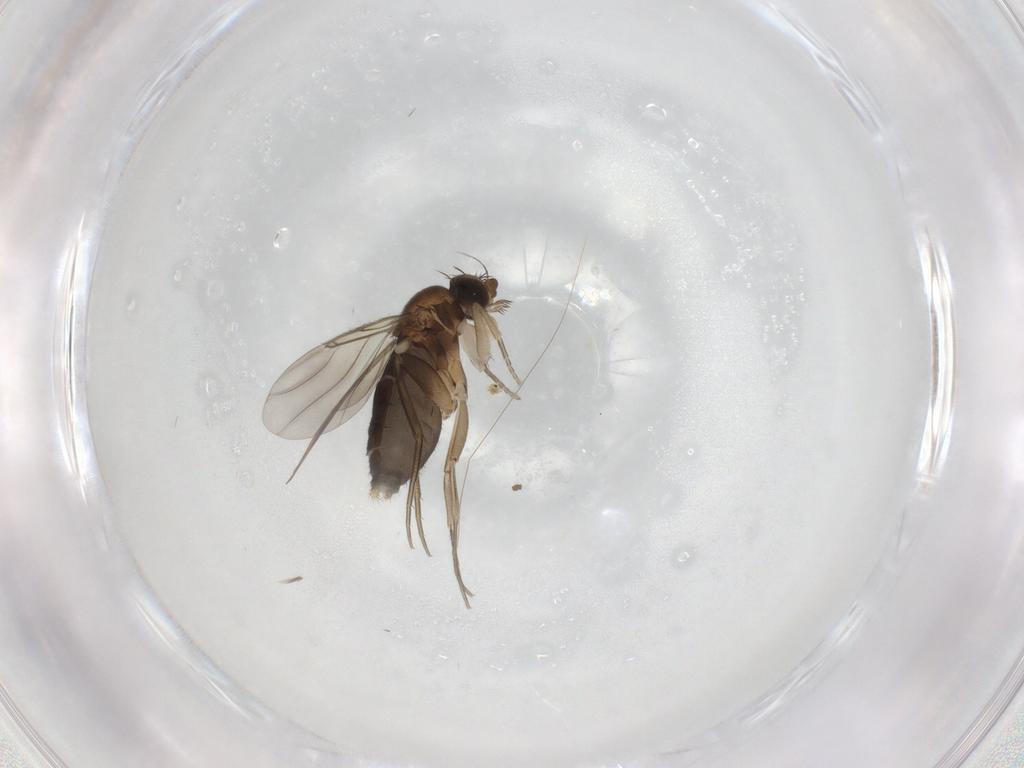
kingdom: Animalia
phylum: Arthropoda
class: Insecta
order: Diptera
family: Phoridae
